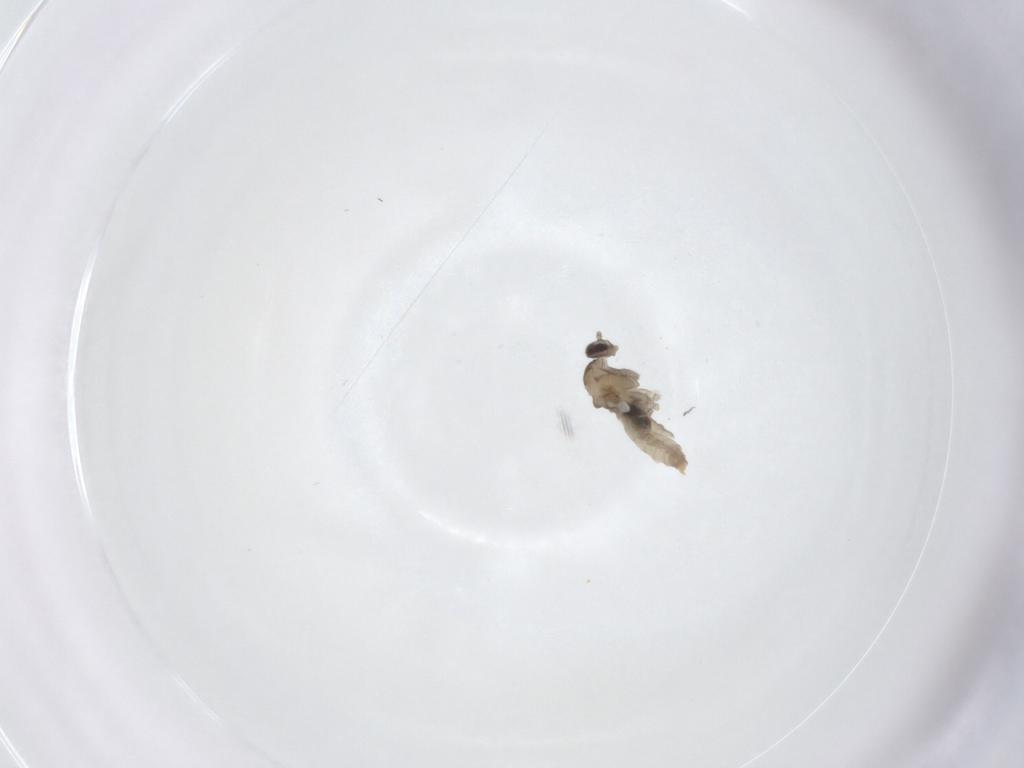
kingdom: Animalia
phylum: Arthropoda
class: Insecta
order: Diptera
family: Cecidomyiidae
